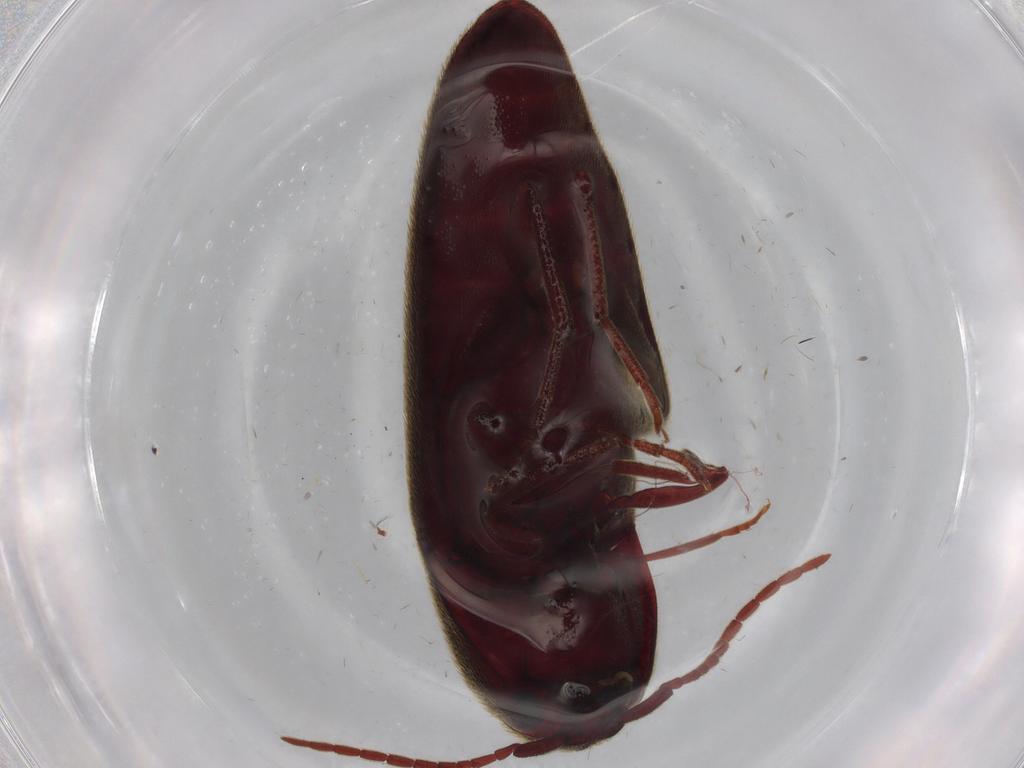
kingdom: Animalia
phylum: Arthropoda
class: Insecta
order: Coleoptera
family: Eucnemidae
